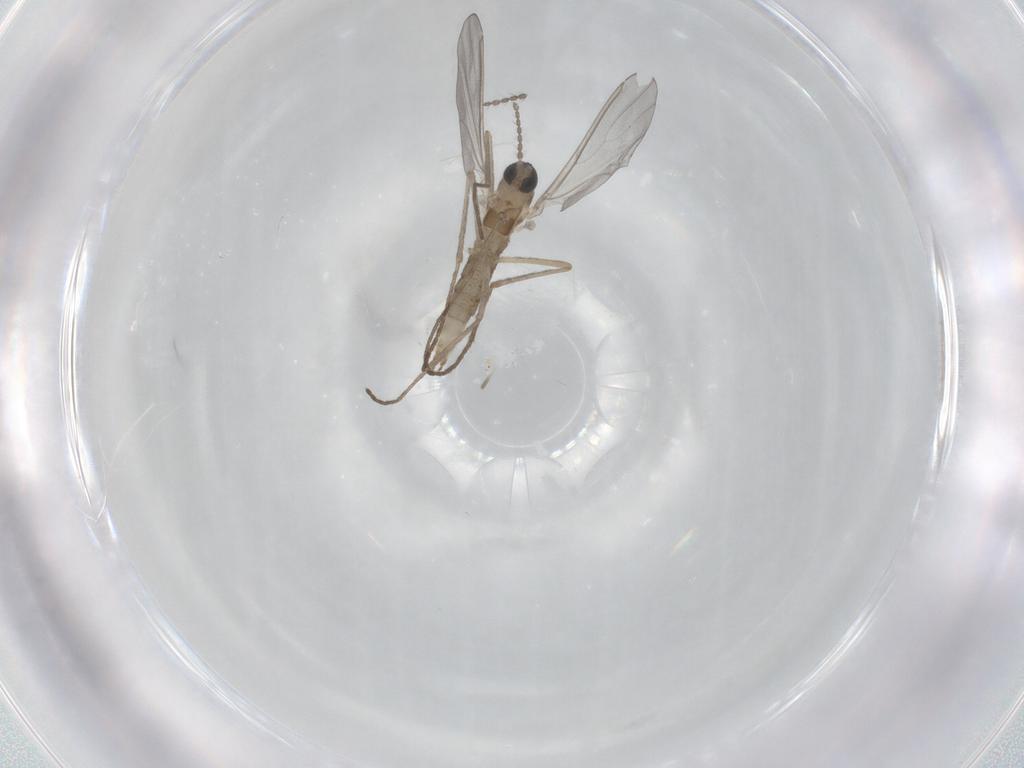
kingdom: Animalia
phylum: Arthropoda
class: Insecta
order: Diptera
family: Cecidomyiidae
